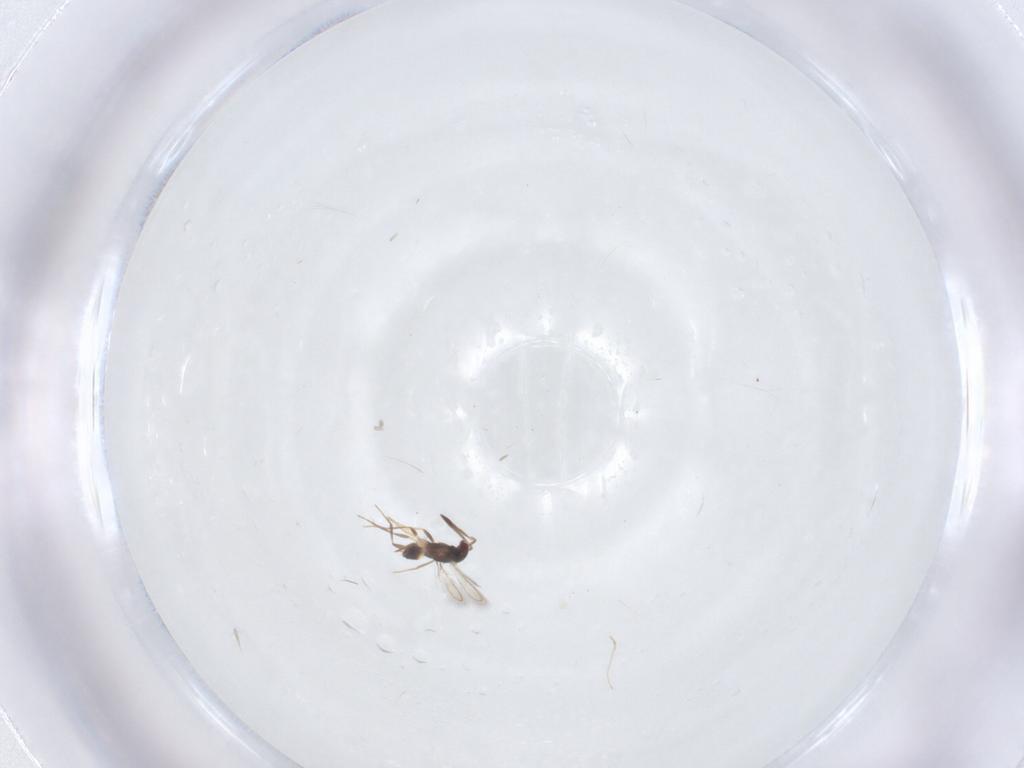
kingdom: Animalia
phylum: Arthropoda
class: Insecta
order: Hymenoptera
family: Mymaridae
